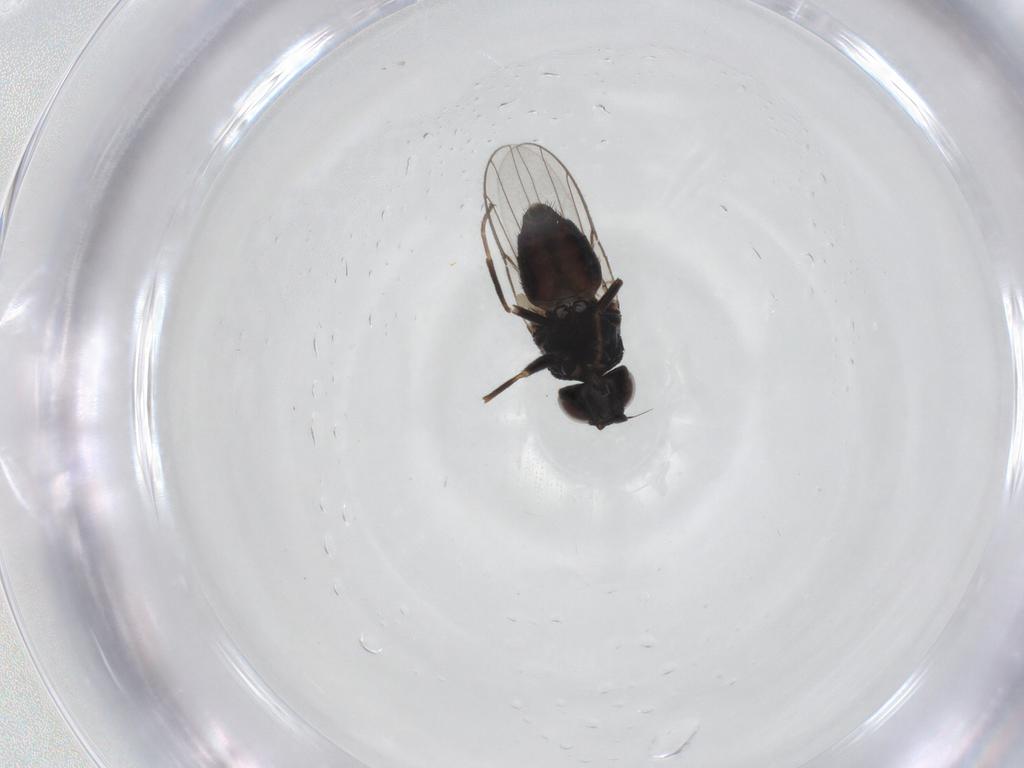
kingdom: Animalia
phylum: Arthropoda
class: Insecta
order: Diptera
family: Chloropidae
